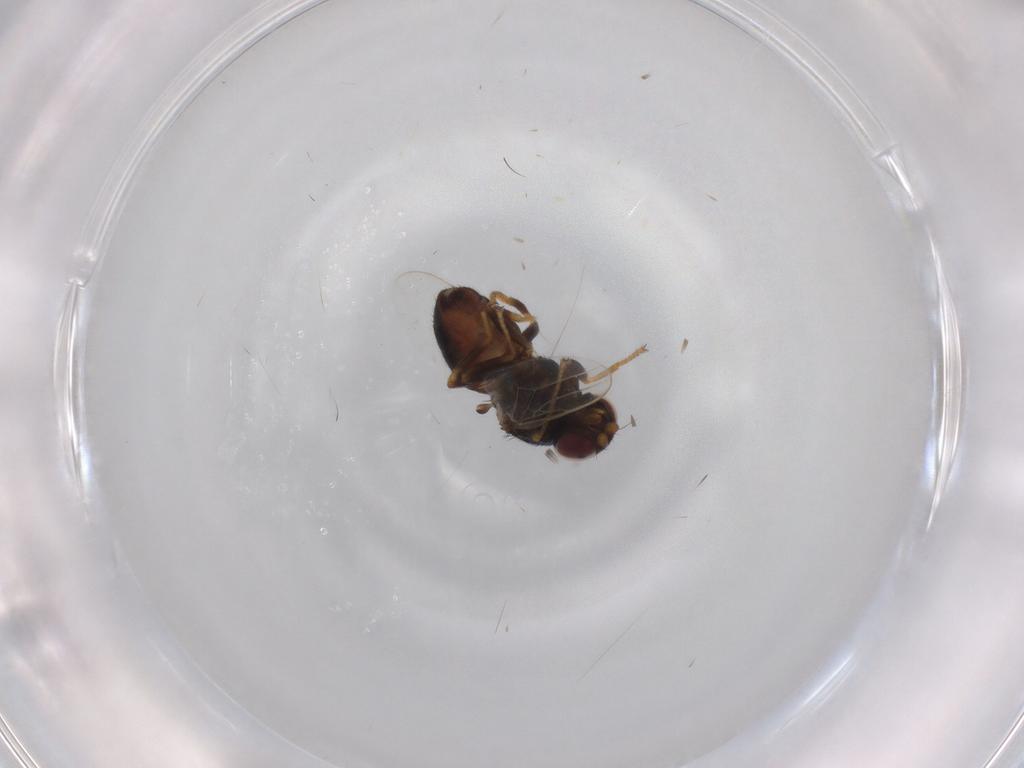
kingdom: Animalia
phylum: Arthropoda
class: Insecta
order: Diptera
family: Chloropidae
